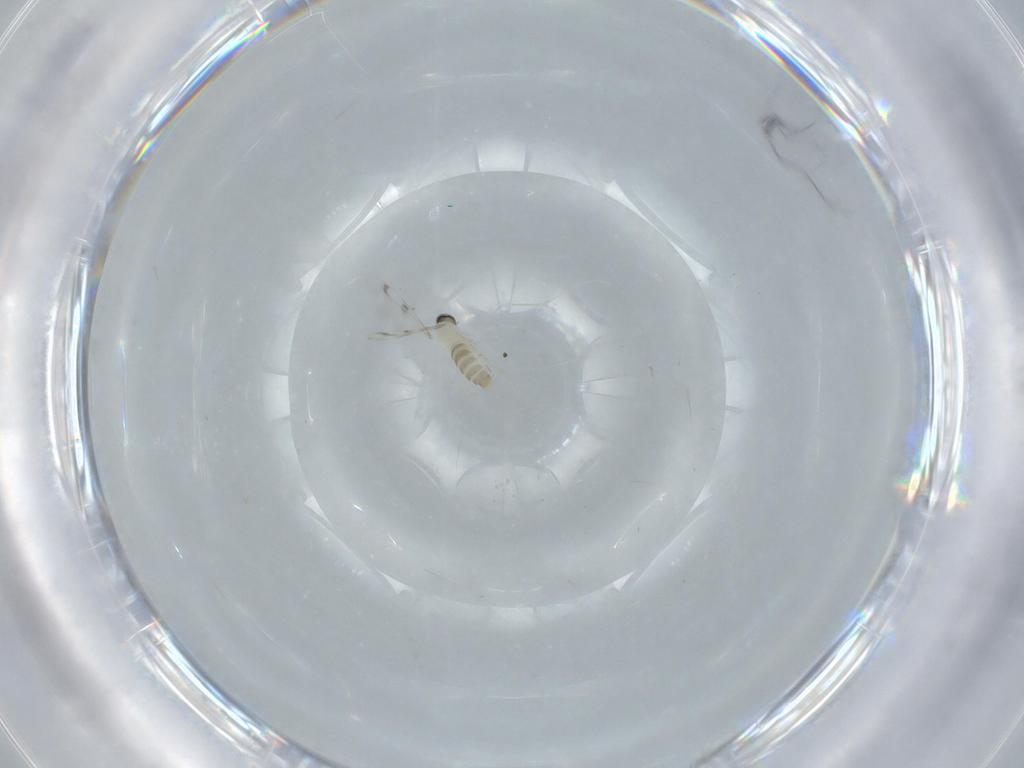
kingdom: Animalia
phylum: Arthropoda
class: Insecta
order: Diptera
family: Cecidomyiidae
